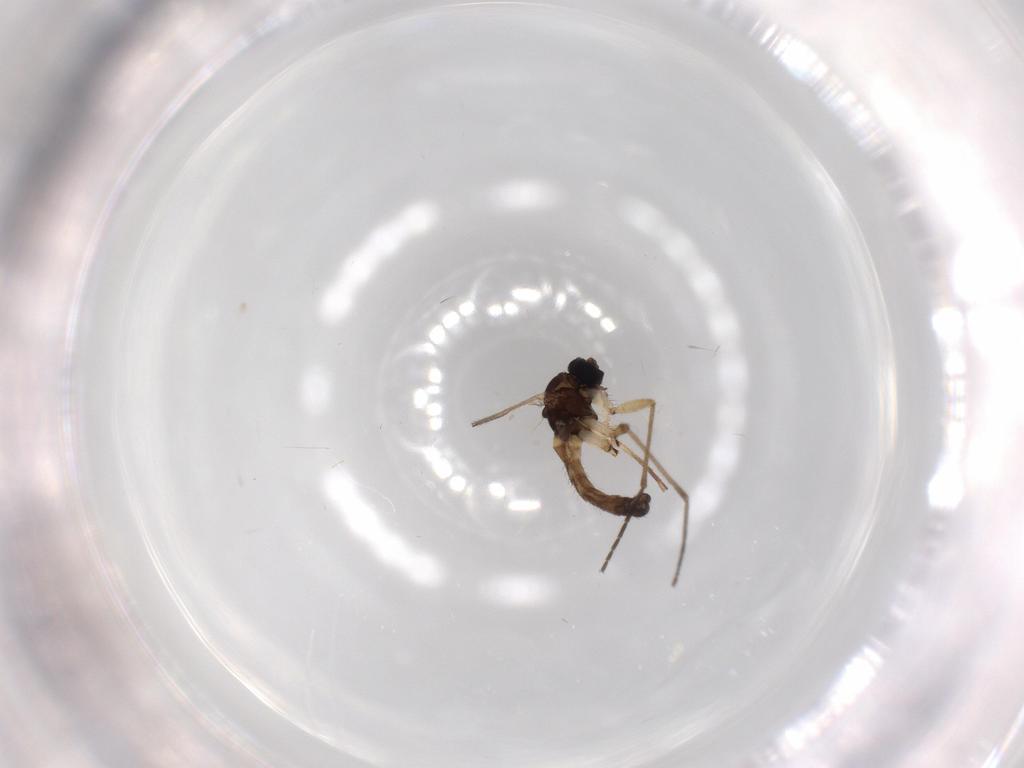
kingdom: Animalia
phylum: Arthropoda
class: Insecta
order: Diptera
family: Sciaridae
